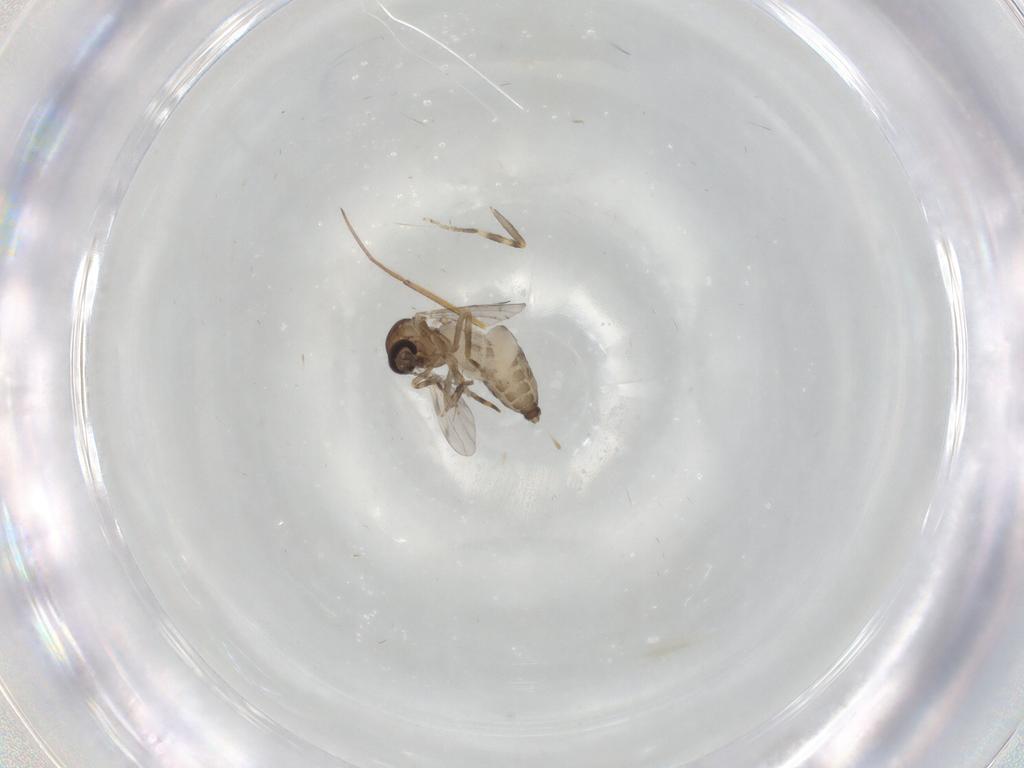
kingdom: Animalia
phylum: Arthropoda
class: Insecta
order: Diptera
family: Ceratopogonidae
